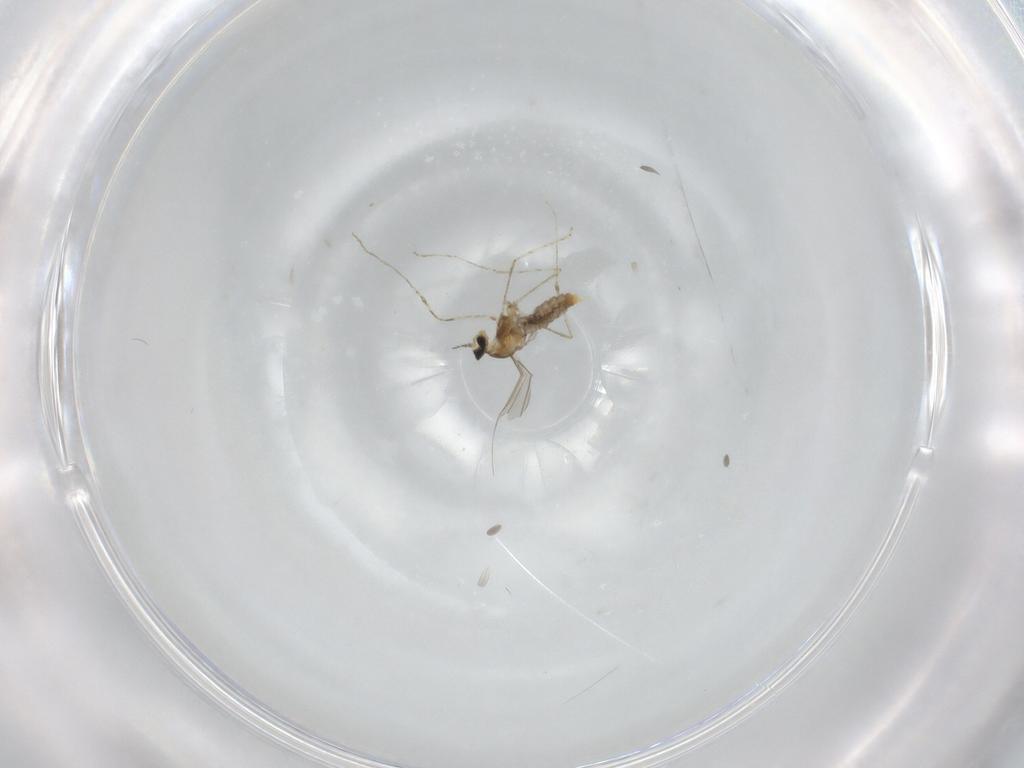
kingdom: Animalia
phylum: Arthropoda
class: Insecta
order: Diptera
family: Cecidomyiidae
